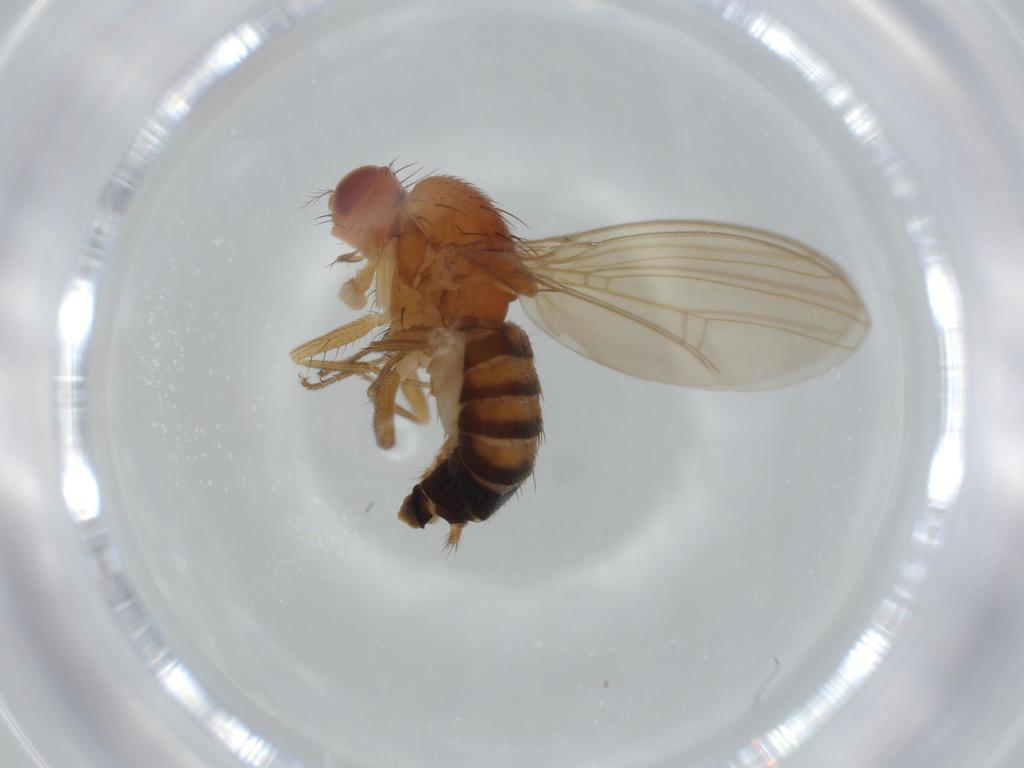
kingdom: Animalia
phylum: Arthropoda
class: Insecta
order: Diptera
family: Drosophilidae
